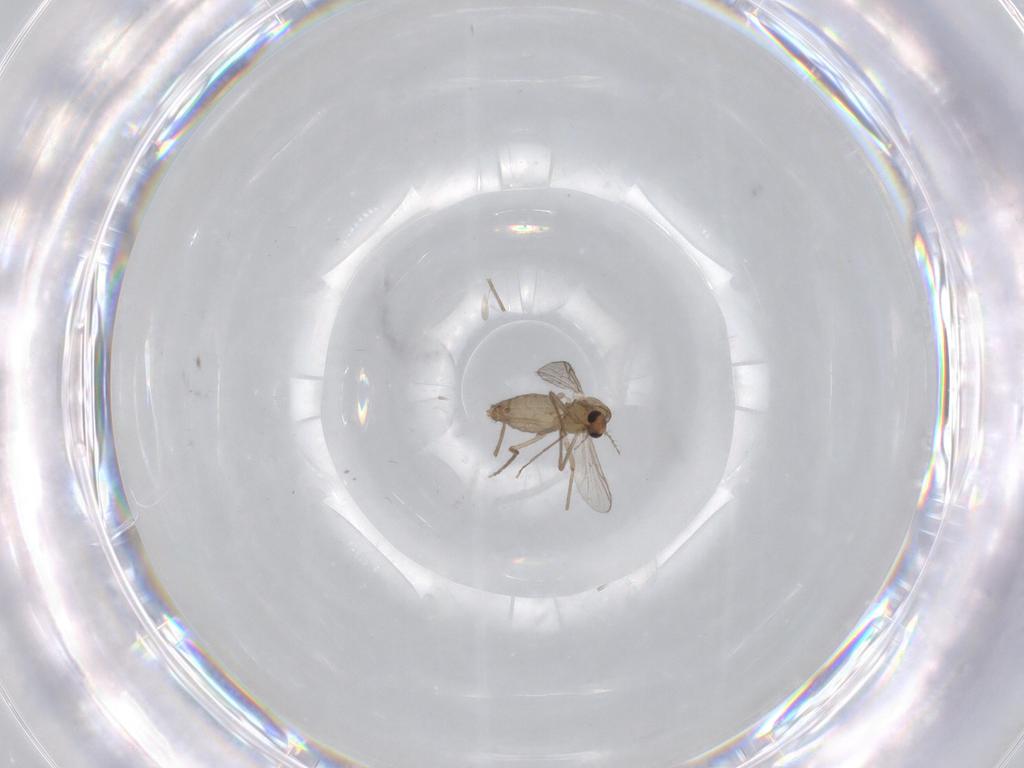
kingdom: Animalia
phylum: Arthropoda
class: Insecta
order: Diptera
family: Chironomidae
